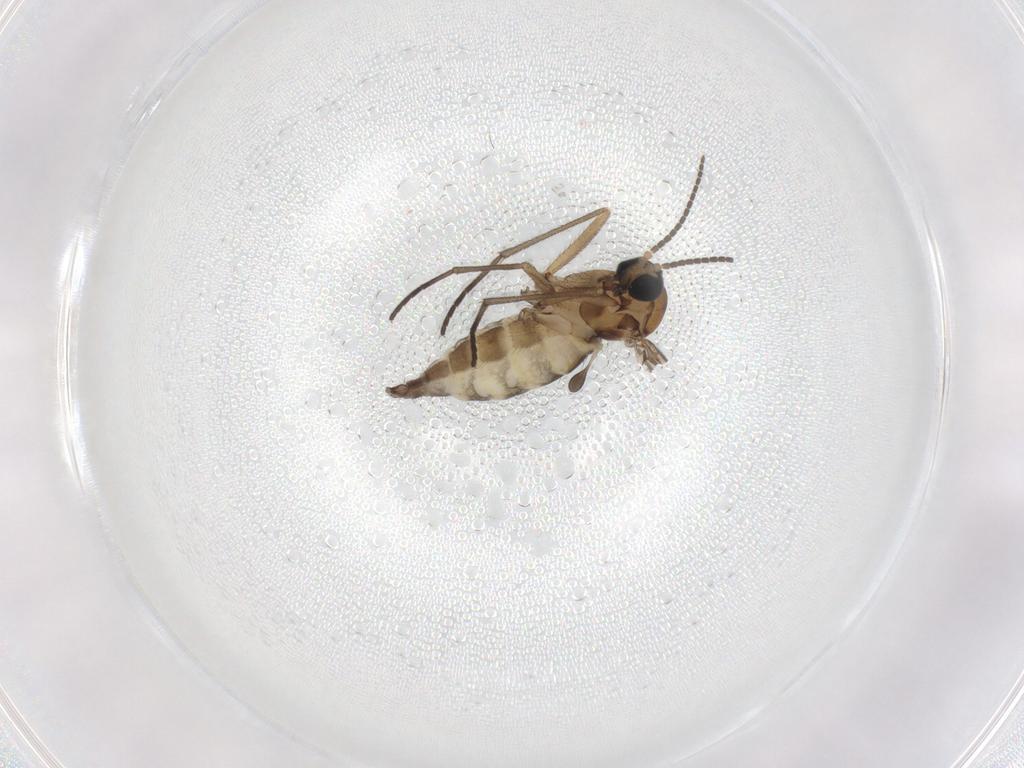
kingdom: Animalia
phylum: Arthropoda
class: Insecta
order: Diptera
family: Sciaridae
